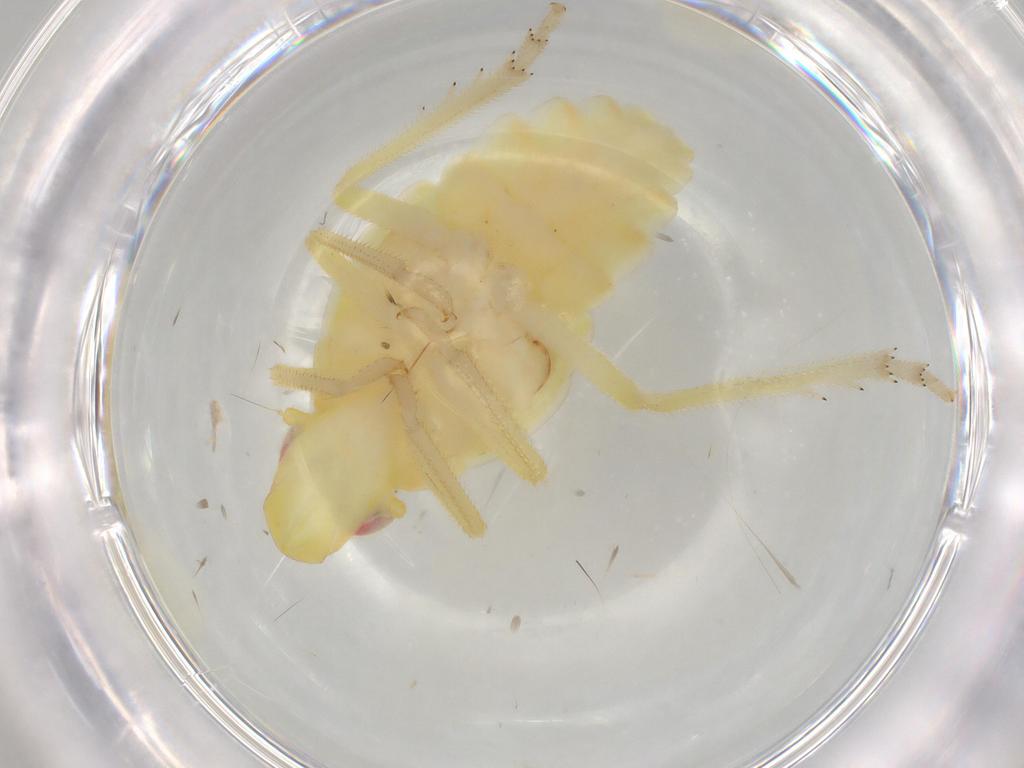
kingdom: Animalia
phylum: Arthropoda
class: Insecta
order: Hemiptera
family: Tropiduchidae
